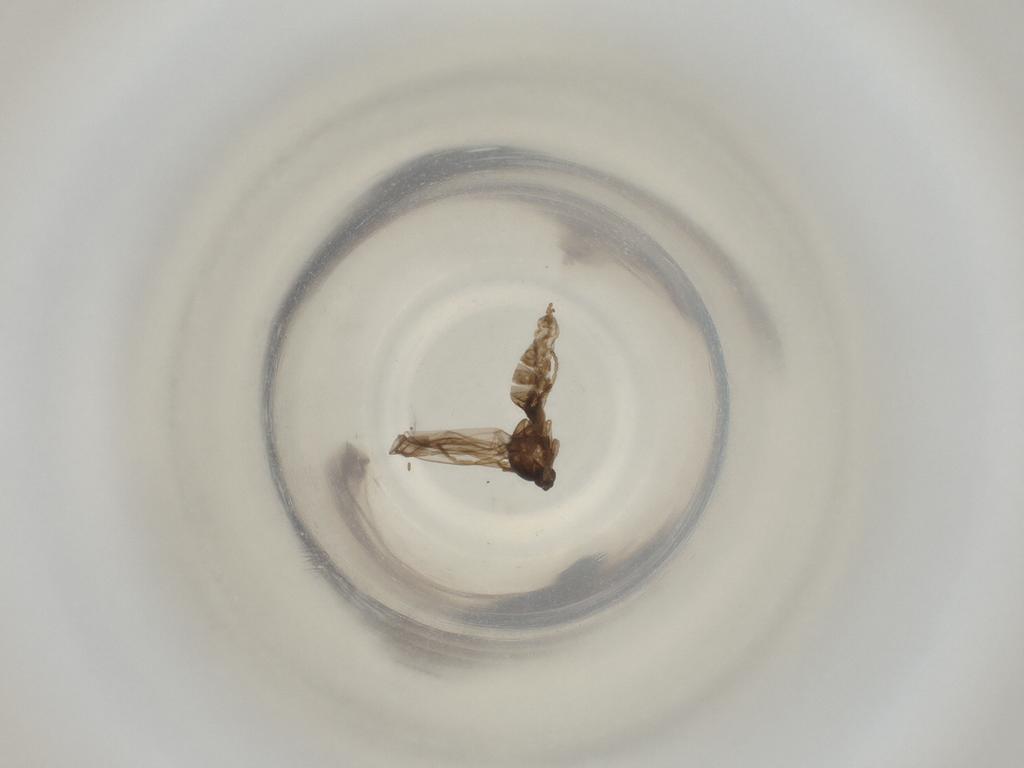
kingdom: Animalia
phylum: Arthropoda
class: Insecta
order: Diptera
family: Cecidomyiidae
